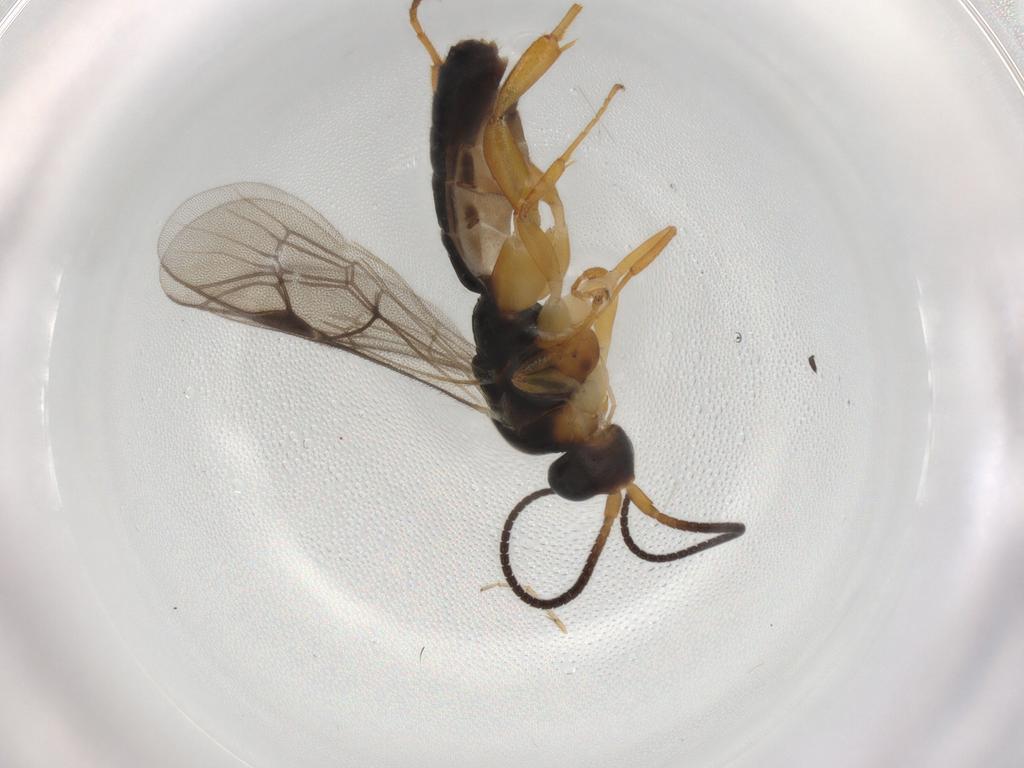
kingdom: Animalia
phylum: Arthropoda
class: Insecta
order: Hymenoptera
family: Ichneumonidae
